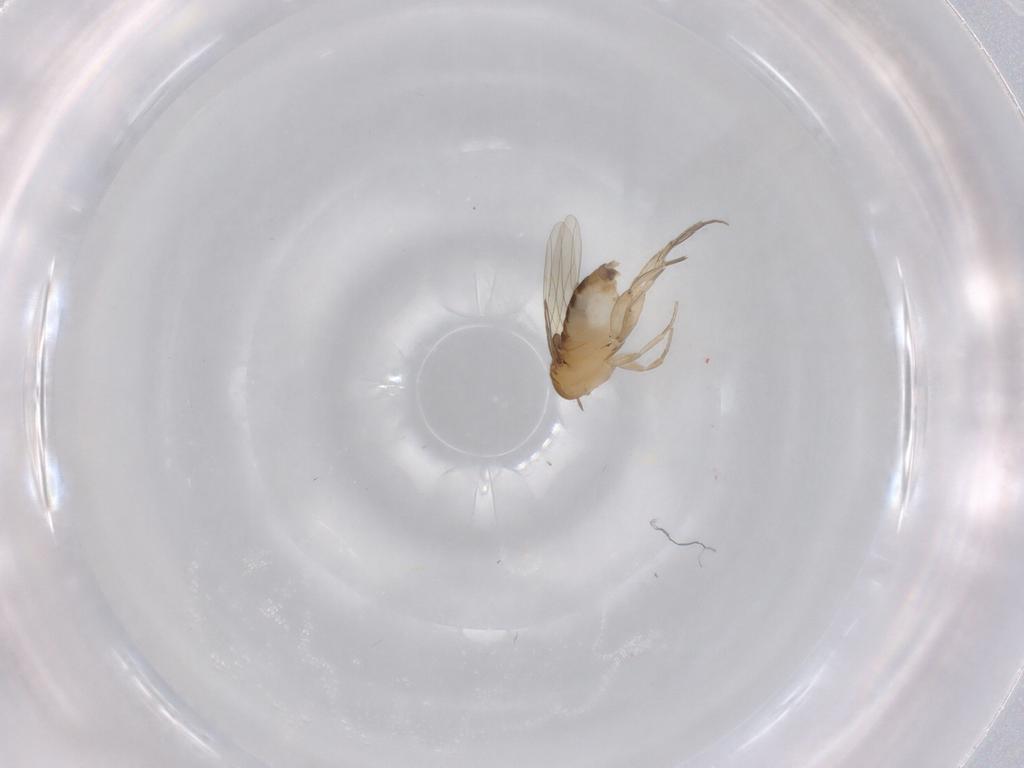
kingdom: Animalia
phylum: Arthropoda
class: Insecta
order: Diptera
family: Phoridae
